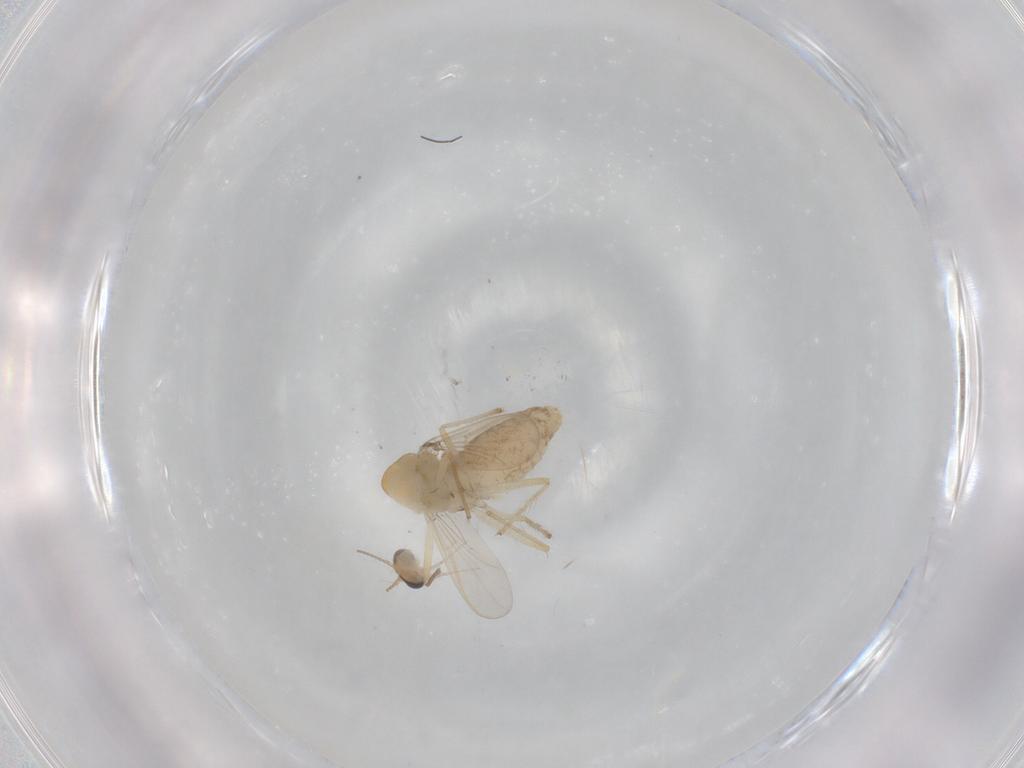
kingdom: Animalia
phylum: Arthropoda
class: Insecta
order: Diptera
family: Chironomidae
